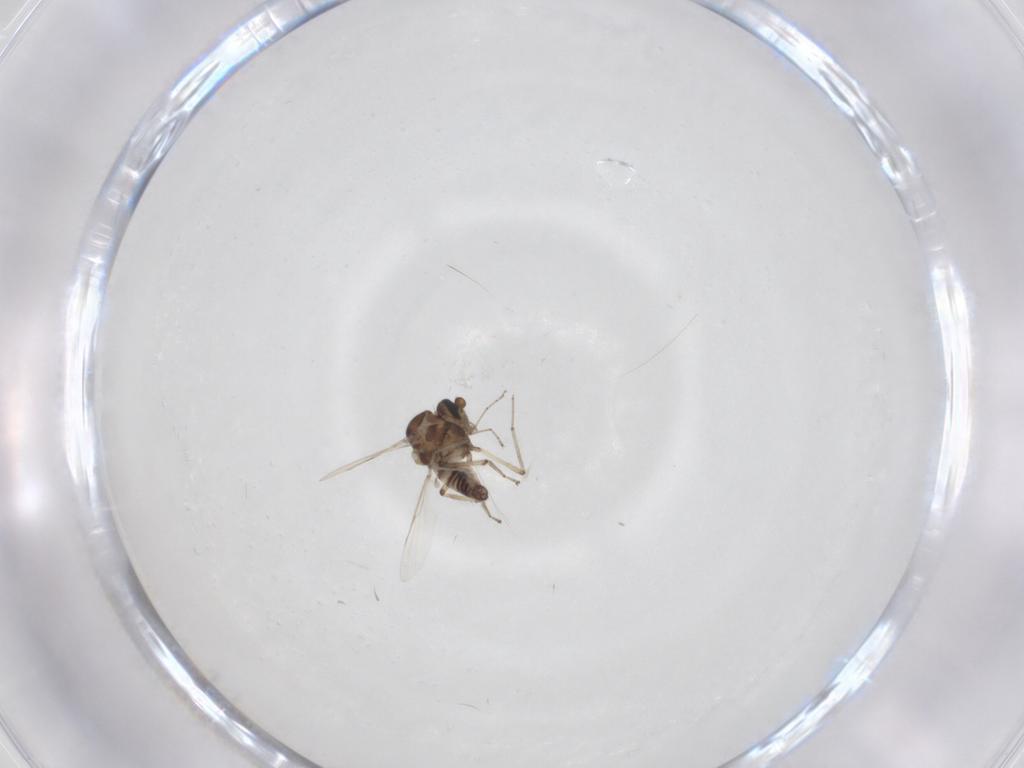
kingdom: Animalia
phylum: Arthropoda
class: Insecta
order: Diptera
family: Ceratopogonidae
